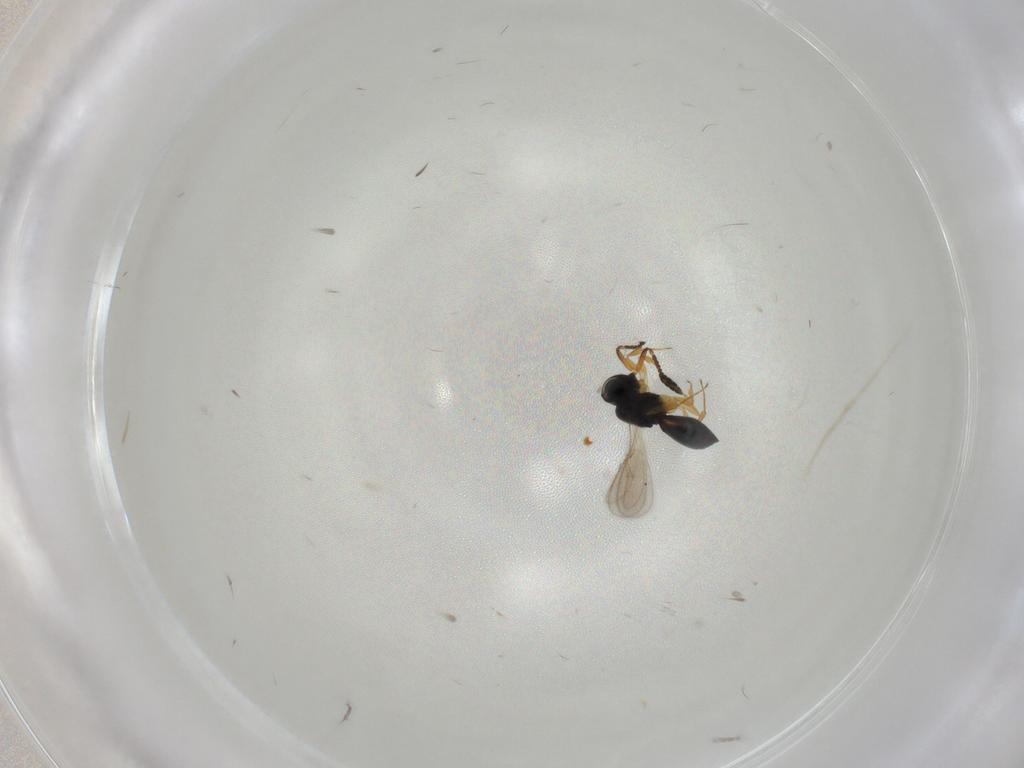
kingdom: Animalia
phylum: Arthropoda
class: Insecta
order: Hymenoptera
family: Scelionidae
